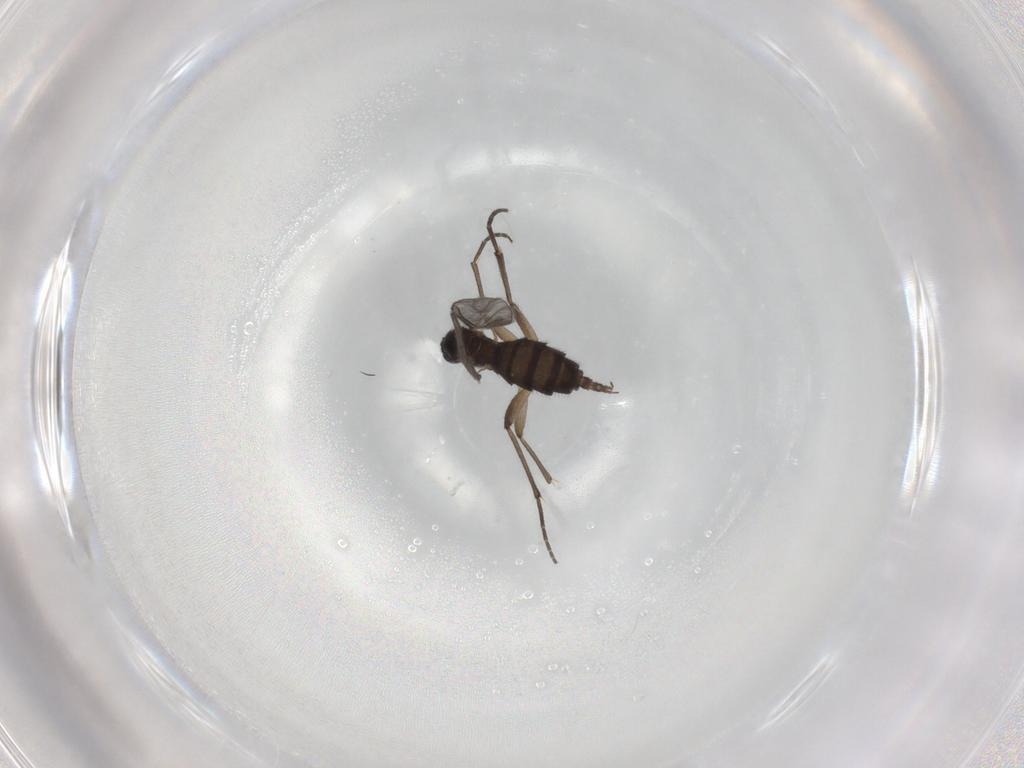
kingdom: Animalia
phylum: Arthropoda
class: Insecta
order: Diptera
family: Sciaridae
